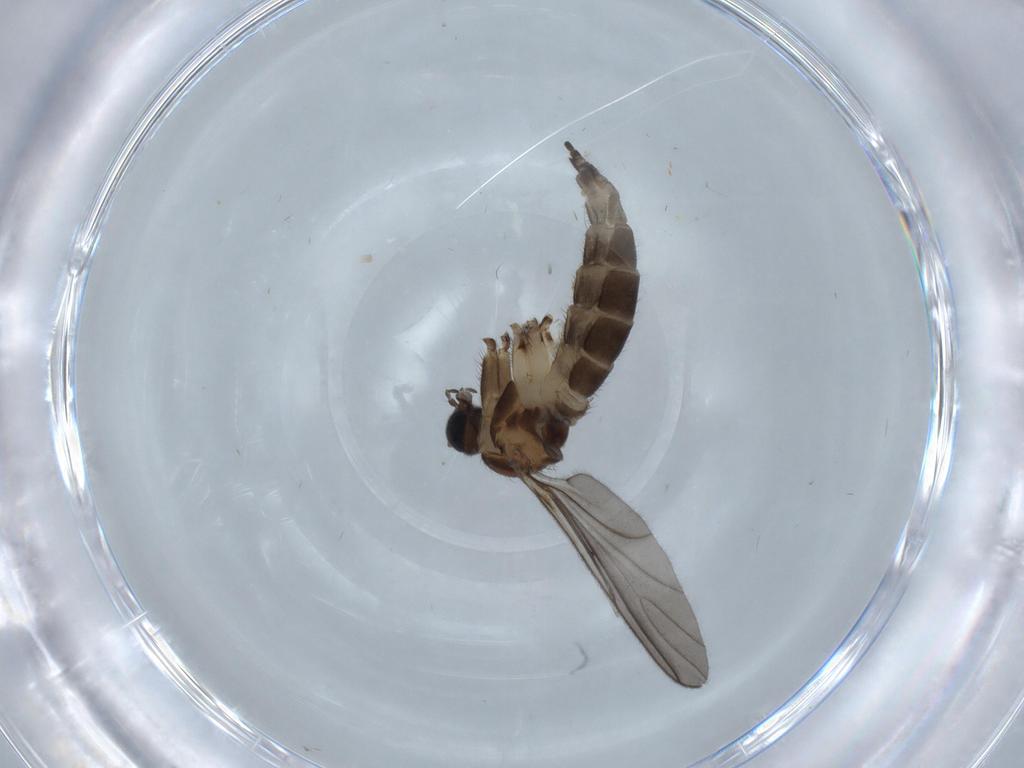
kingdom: Animalia
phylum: Arthropoda
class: Insecta
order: Diptera
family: Sciaridae
